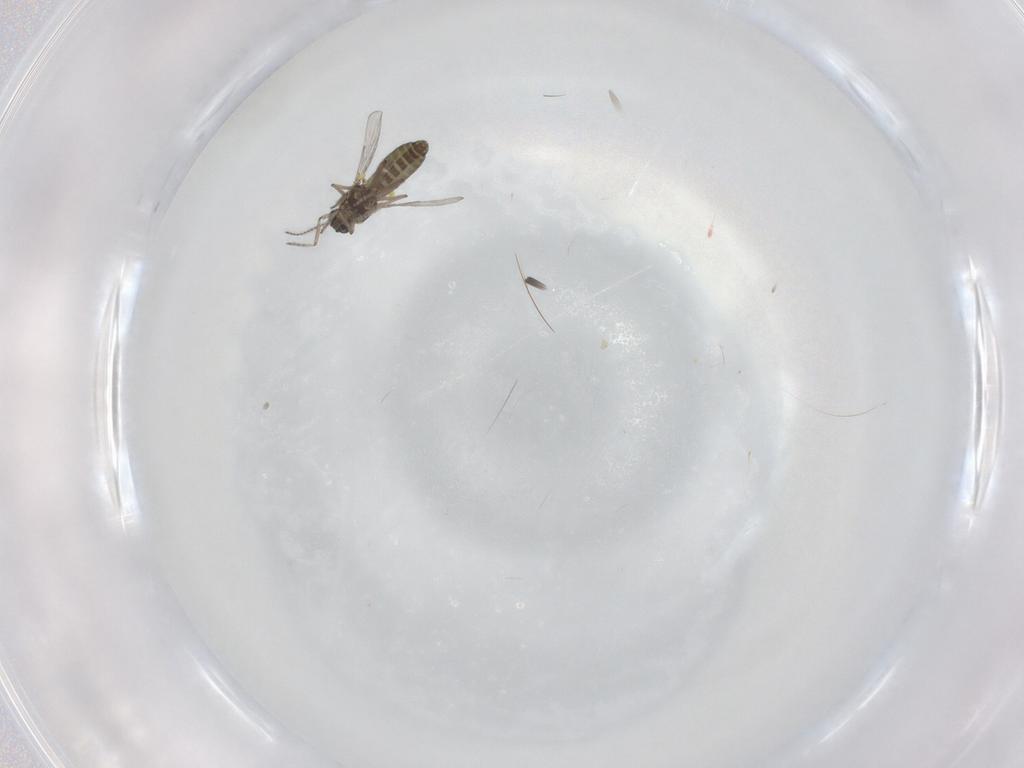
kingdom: Animalia
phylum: Arthropoda
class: Insecta
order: Diptera
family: Ceratopogonidae
